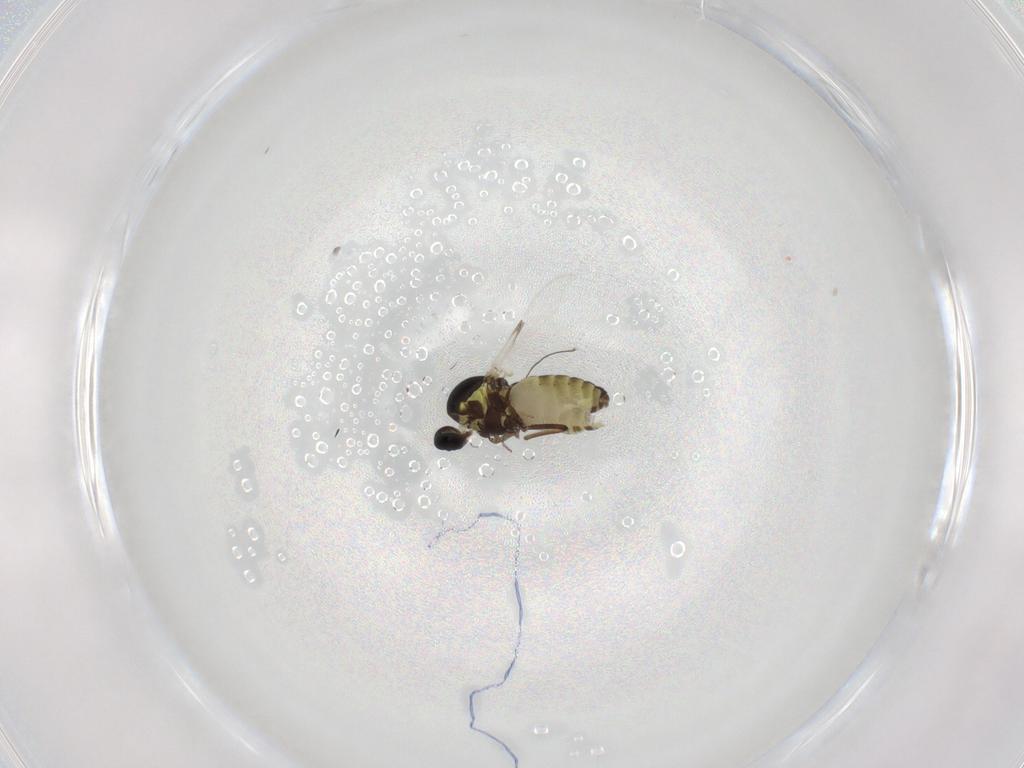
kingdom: Animalia
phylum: Arthropoda
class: Insecta
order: Diptera
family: Ceratopogonidae
